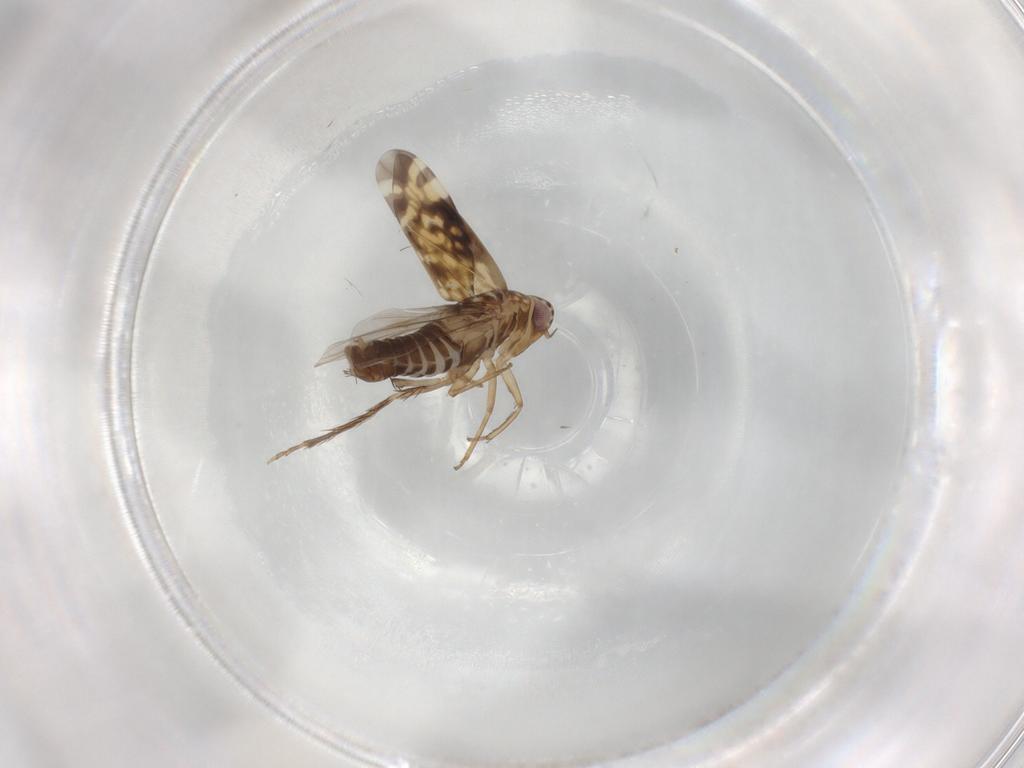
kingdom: Animalia
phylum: Arthropoda
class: Insecta
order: Hemiptera
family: Cicadellidae
